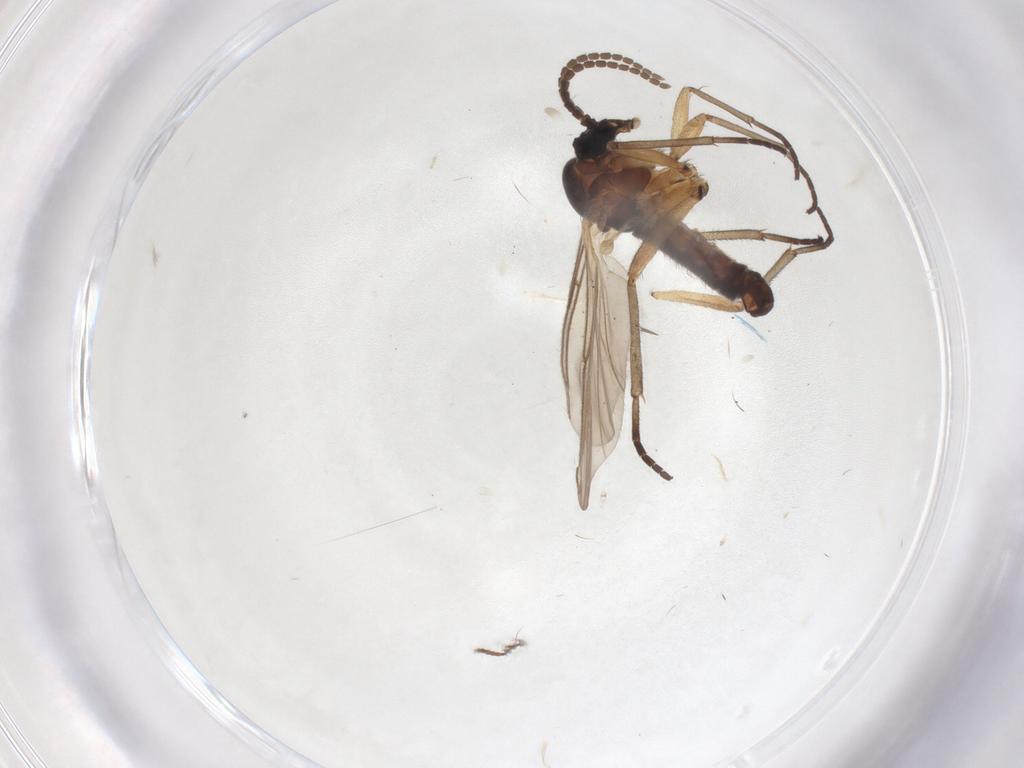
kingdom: Animalia
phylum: Arthropoda
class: Insecta
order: Diptera
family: Sciaridae
